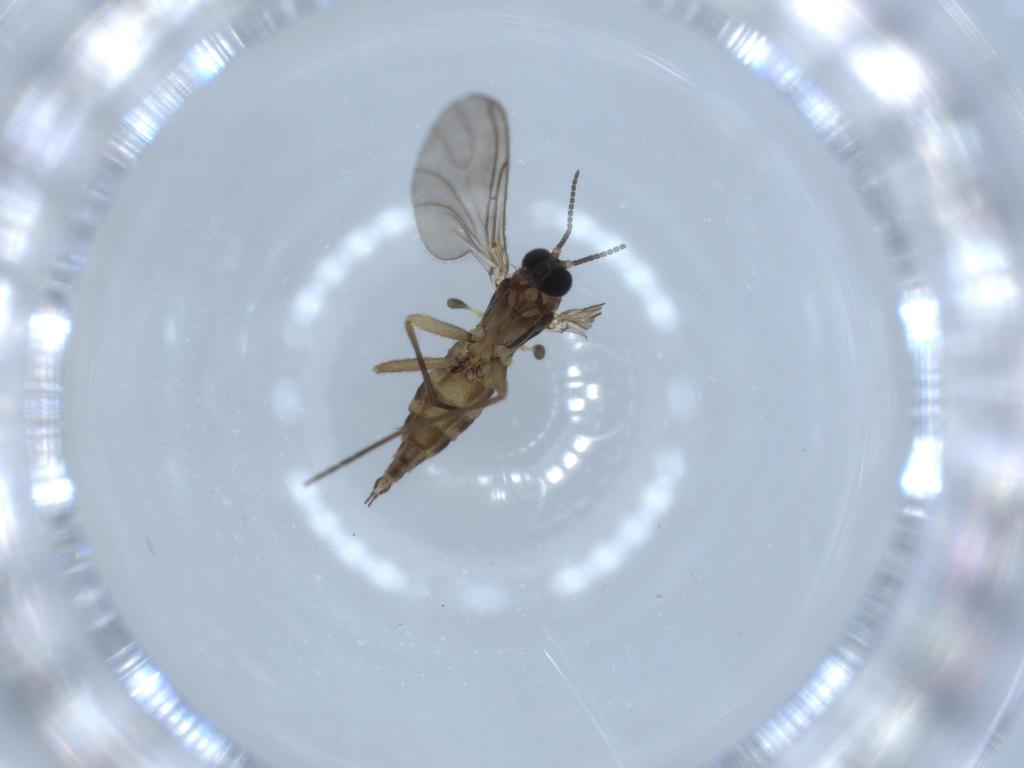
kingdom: Animalia
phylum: Arthropoda
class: Insecta
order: Diptera
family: Sciaridae
